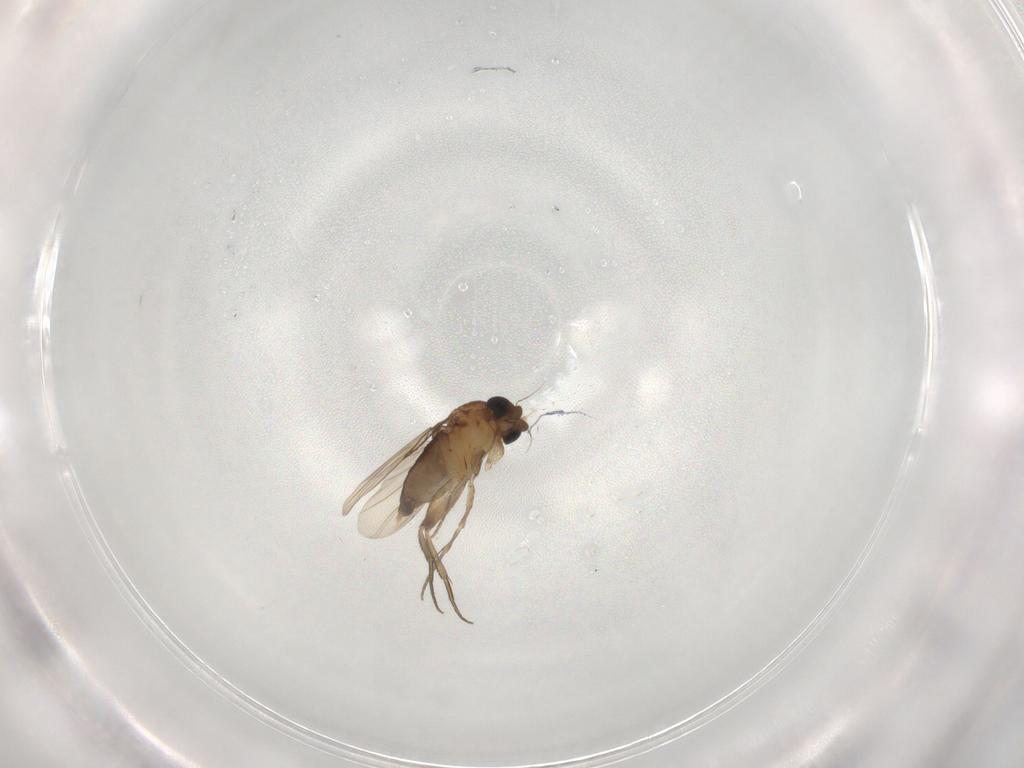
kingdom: Animalia
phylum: Arthropoda
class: Insecta
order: Diptera
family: Phoridae
